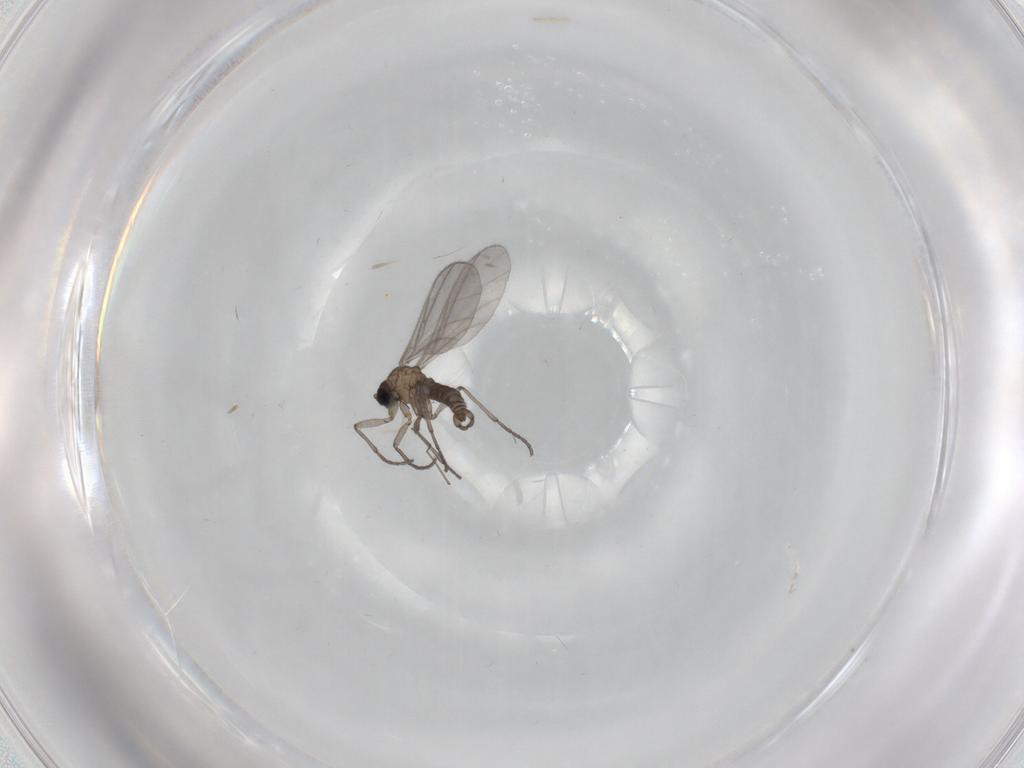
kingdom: Animalia
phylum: Arthropoda
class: Insecta
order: Diptera
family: Sciaridae
